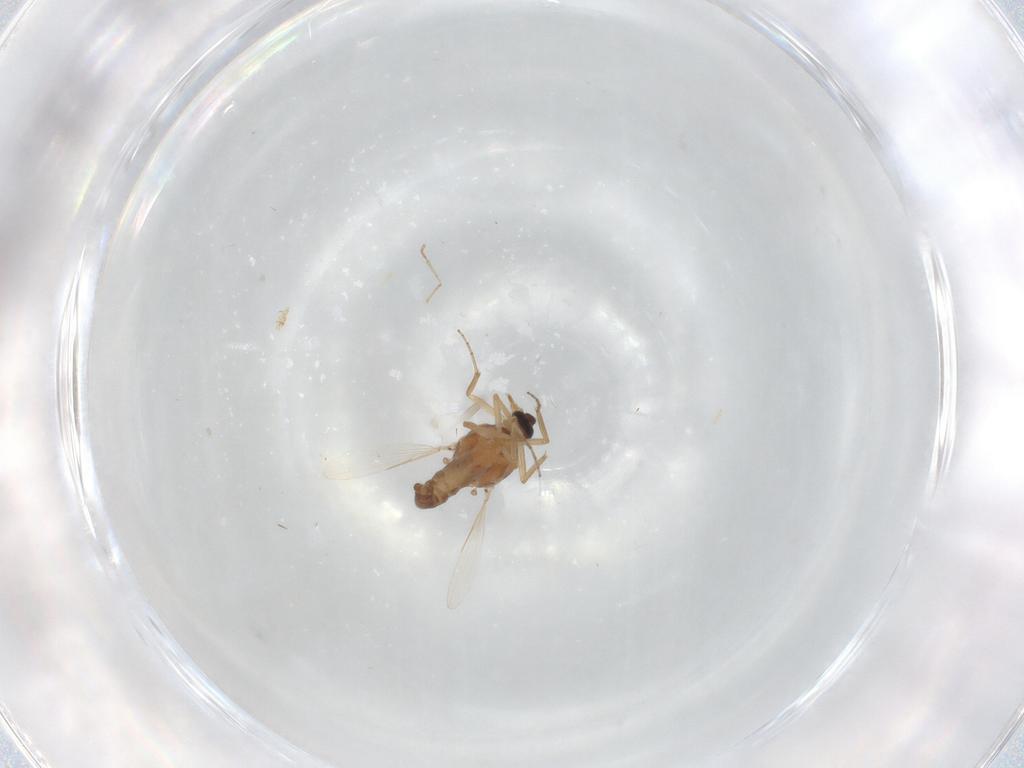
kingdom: Animalia
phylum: Arthropoda
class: Insecta
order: Diptera
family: Ceratopogonidae
